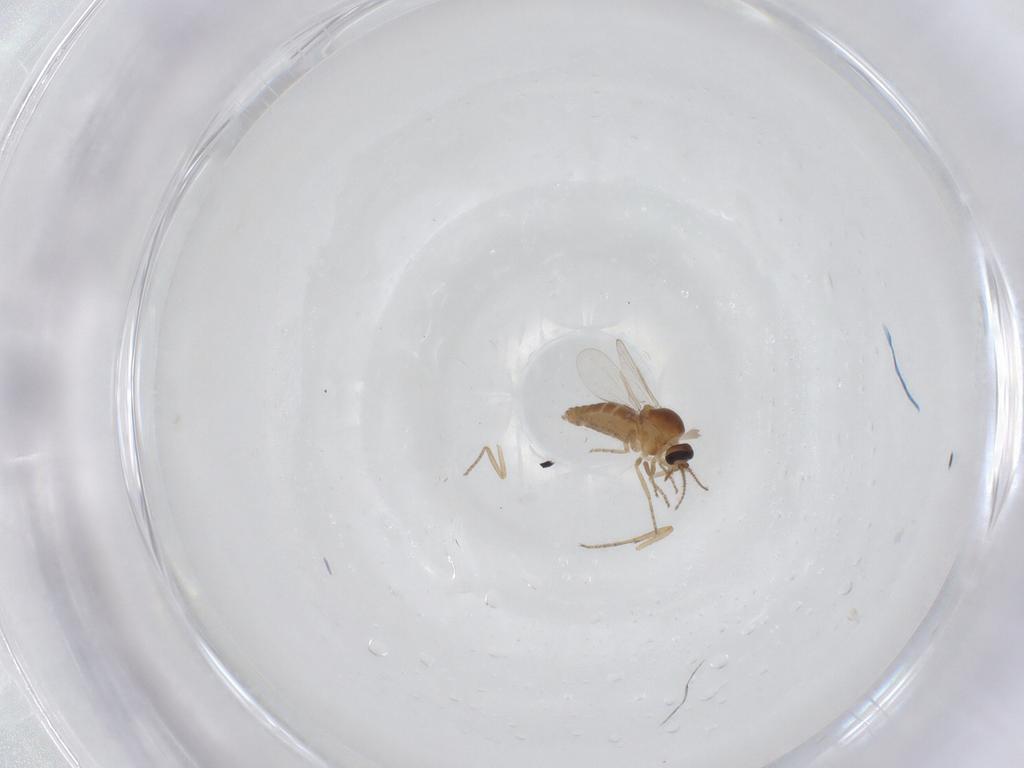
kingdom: Animalia
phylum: Arthropoda
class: Insecta
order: Diptera
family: Ceratopogonidae
